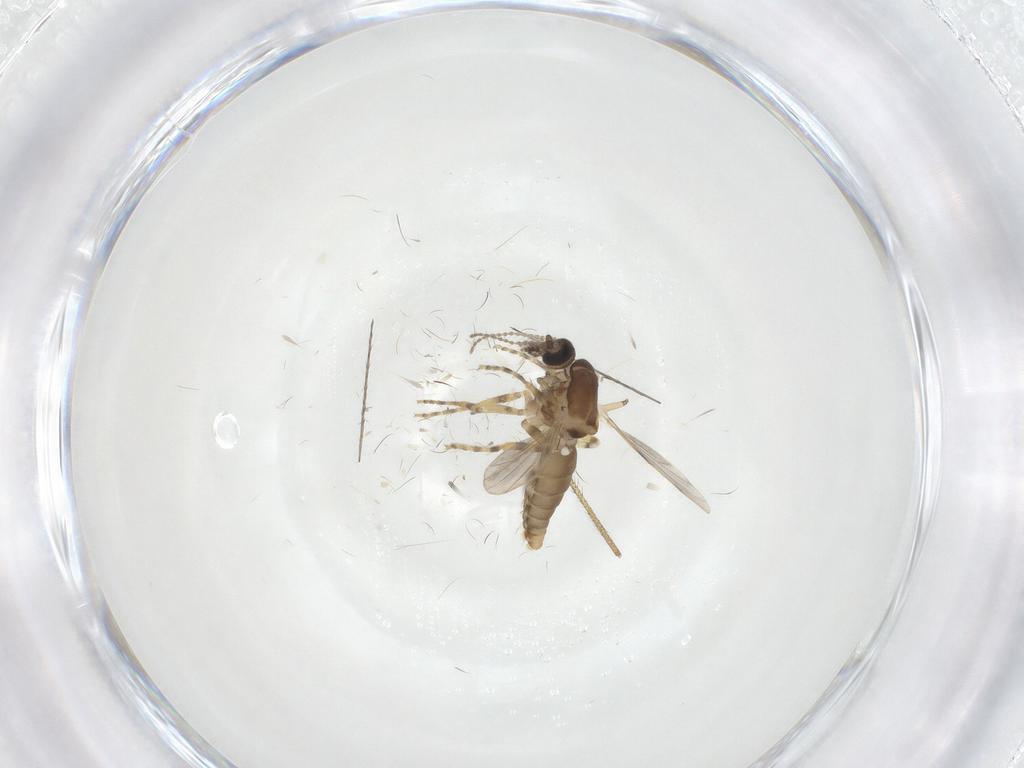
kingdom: Animalia
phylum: Arthropoda
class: Insecta
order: Diptera
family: Ceratopogonidae
